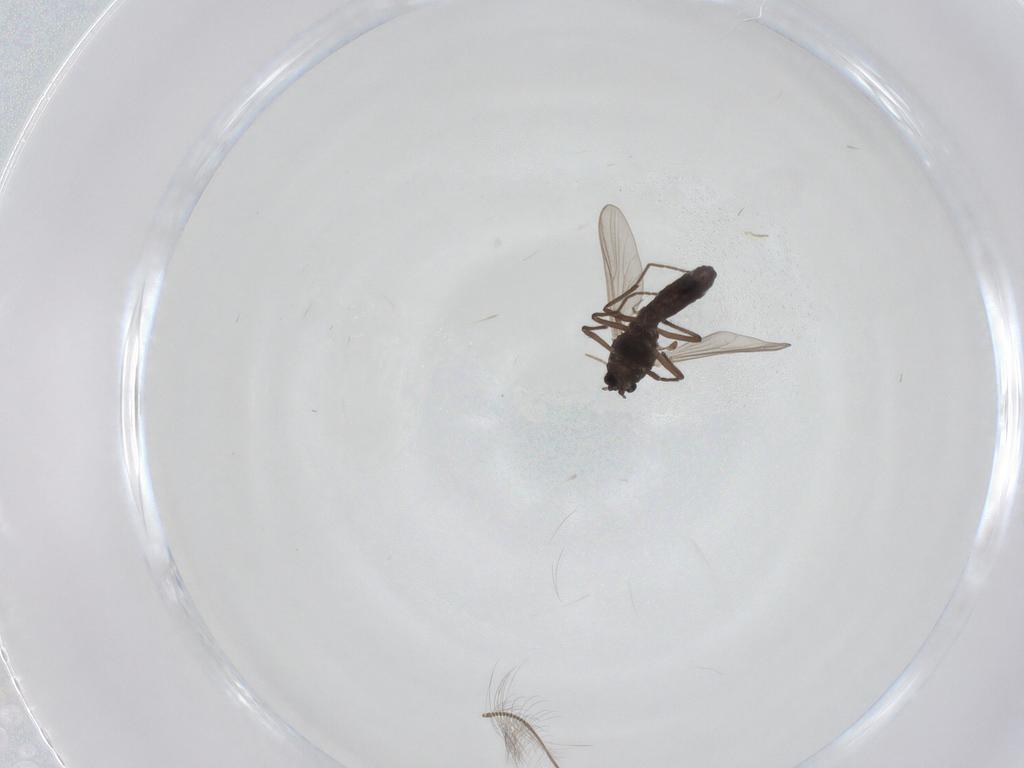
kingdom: Animalia
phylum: Arthropoda
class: Insecta
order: Diptera
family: Chironomidae
